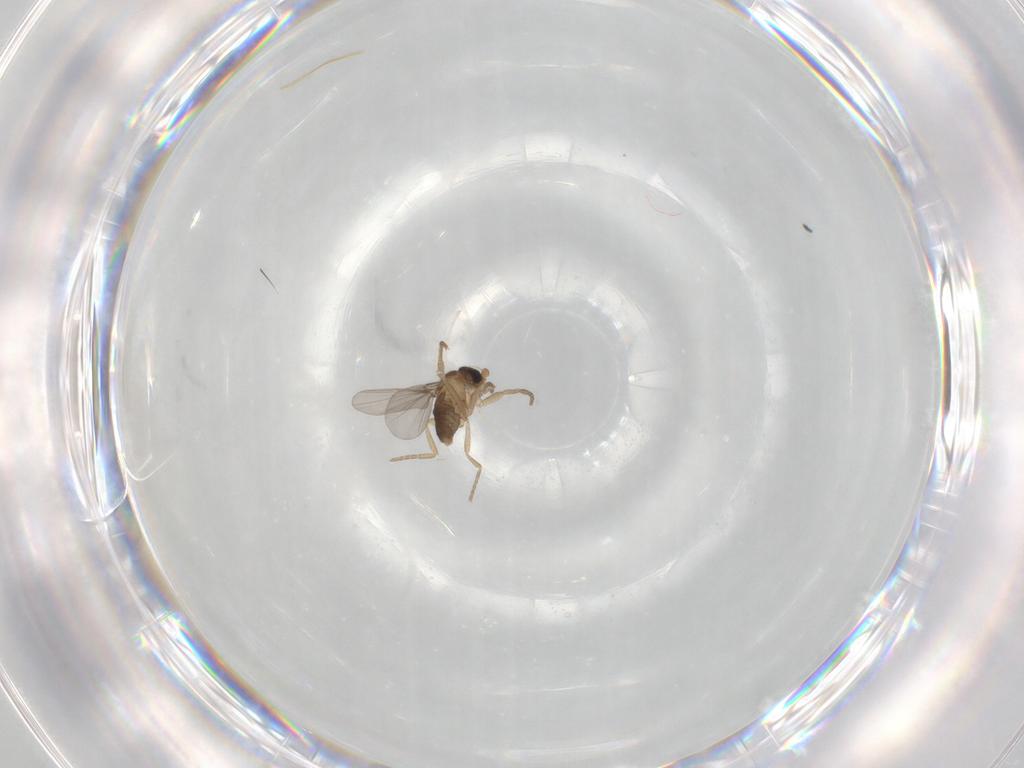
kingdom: Animalia
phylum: Arthropoda
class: Insecta
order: Diptera
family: Phoridae
